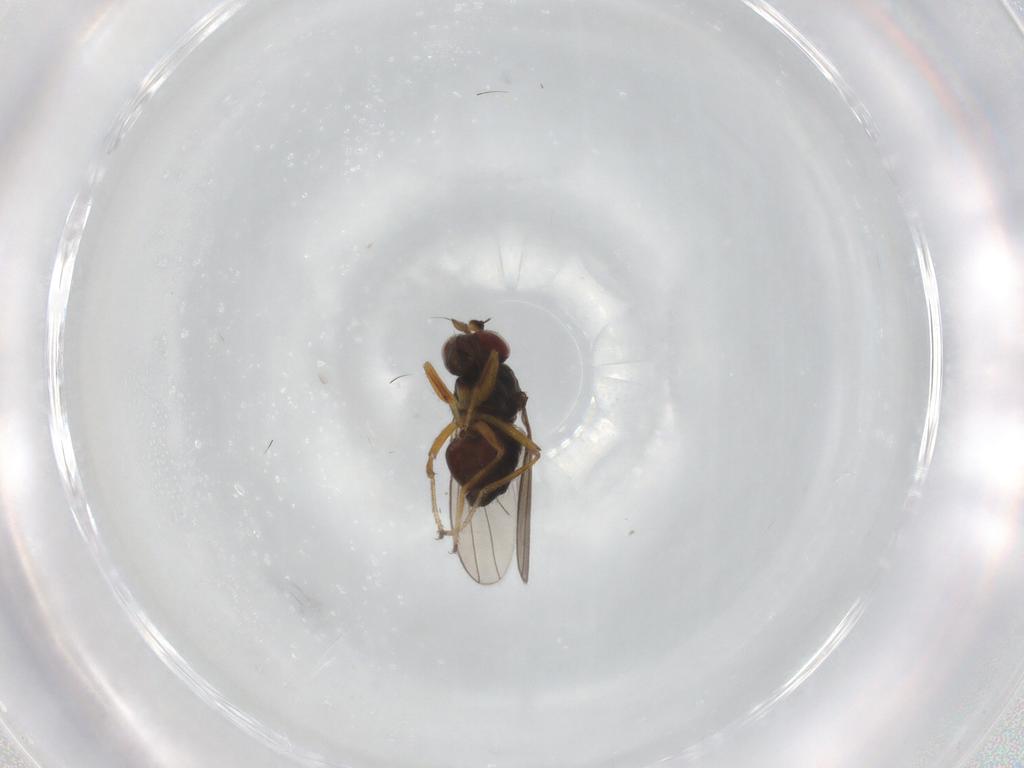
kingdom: Animalia
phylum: Arthropoda
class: Insecta
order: Diptera
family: Ephydridae
